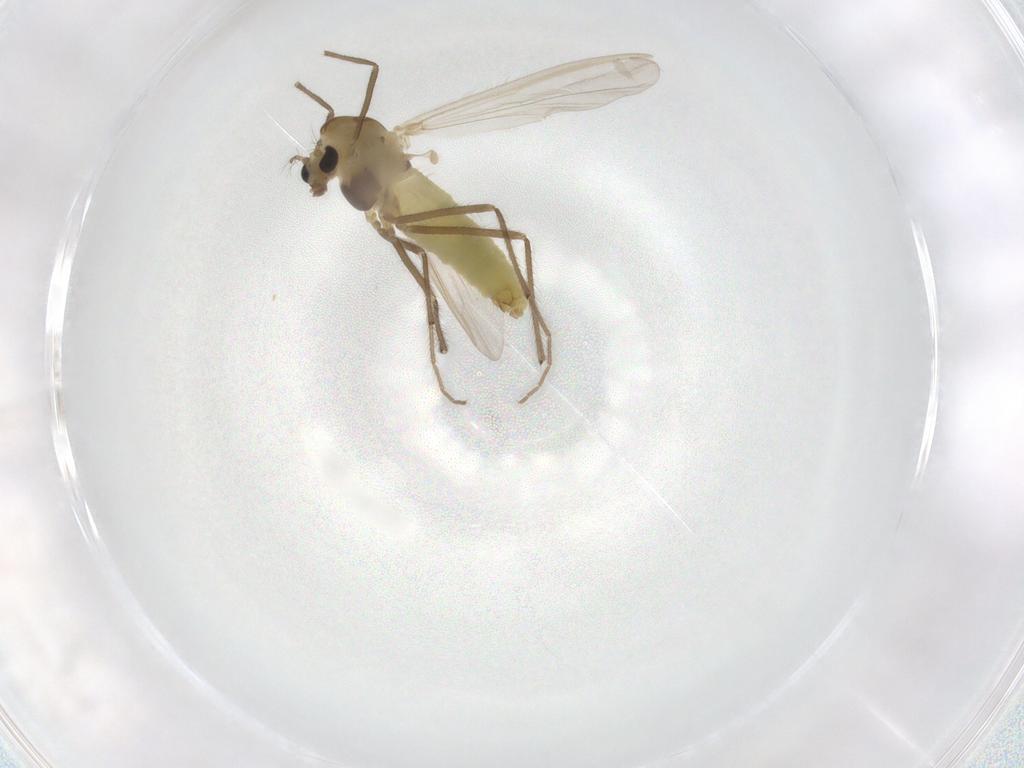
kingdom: Animalia
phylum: Arthropoda
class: Insecta
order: Diptera
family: Chironomidae
